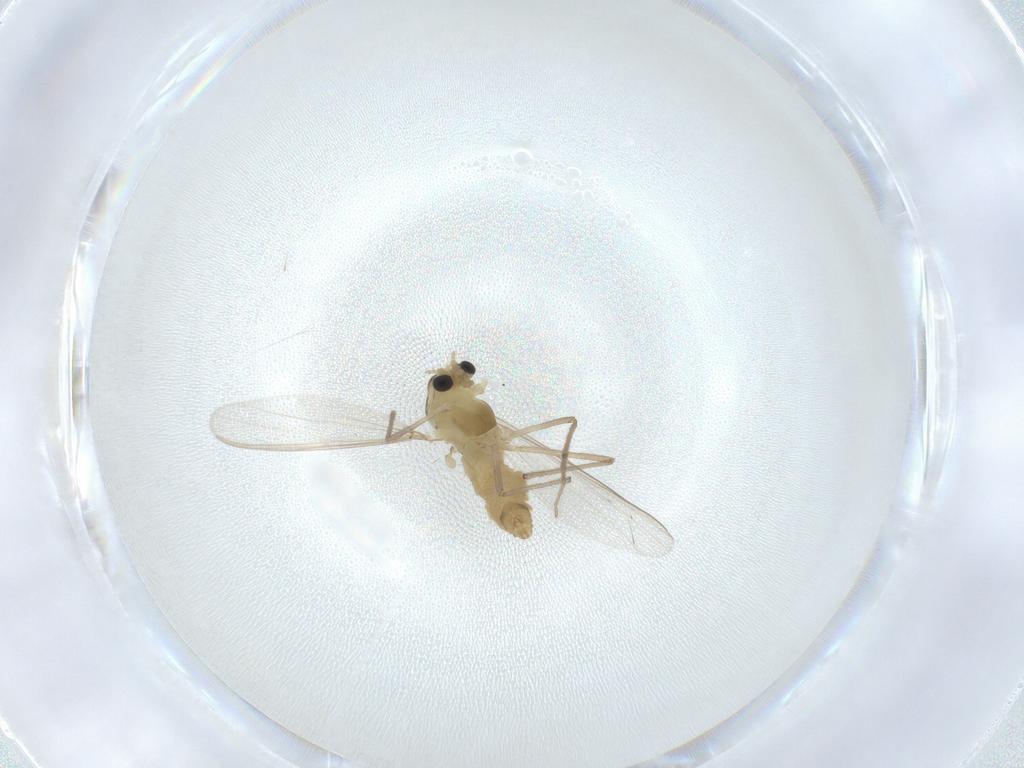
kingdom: Animalia
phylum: Arthropoda
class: Insecta
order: Diptera
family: Chironomidae
